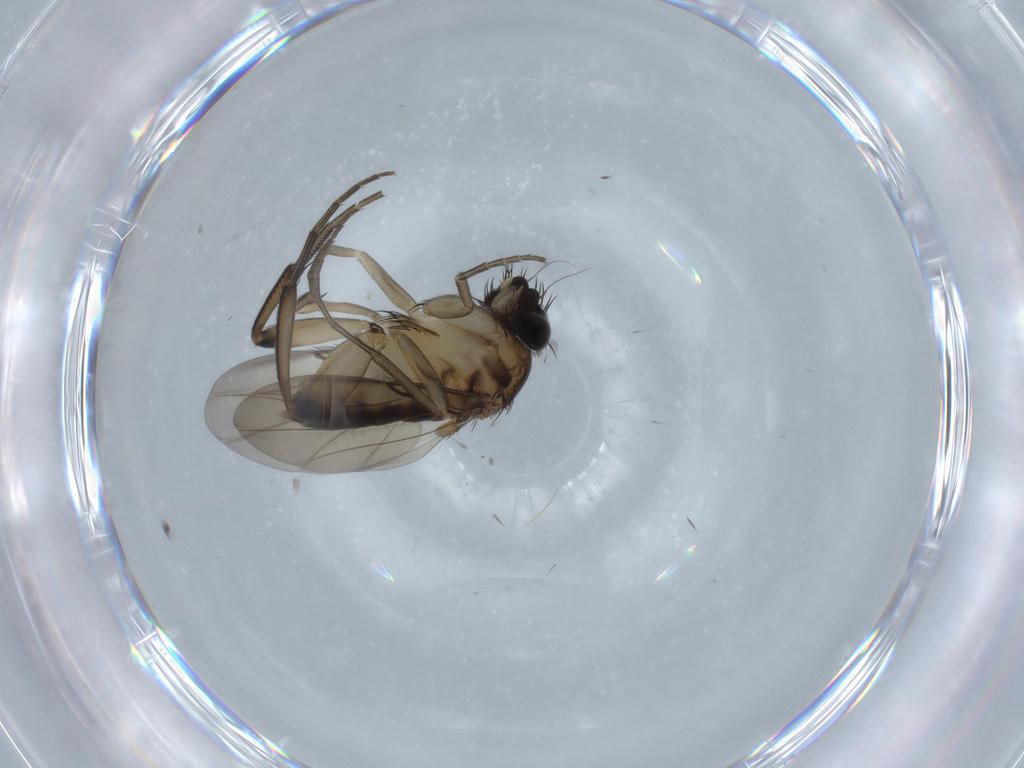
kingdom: Animalia
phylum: Arthropoda
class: Insecta
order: Diptera
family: Phoridae
